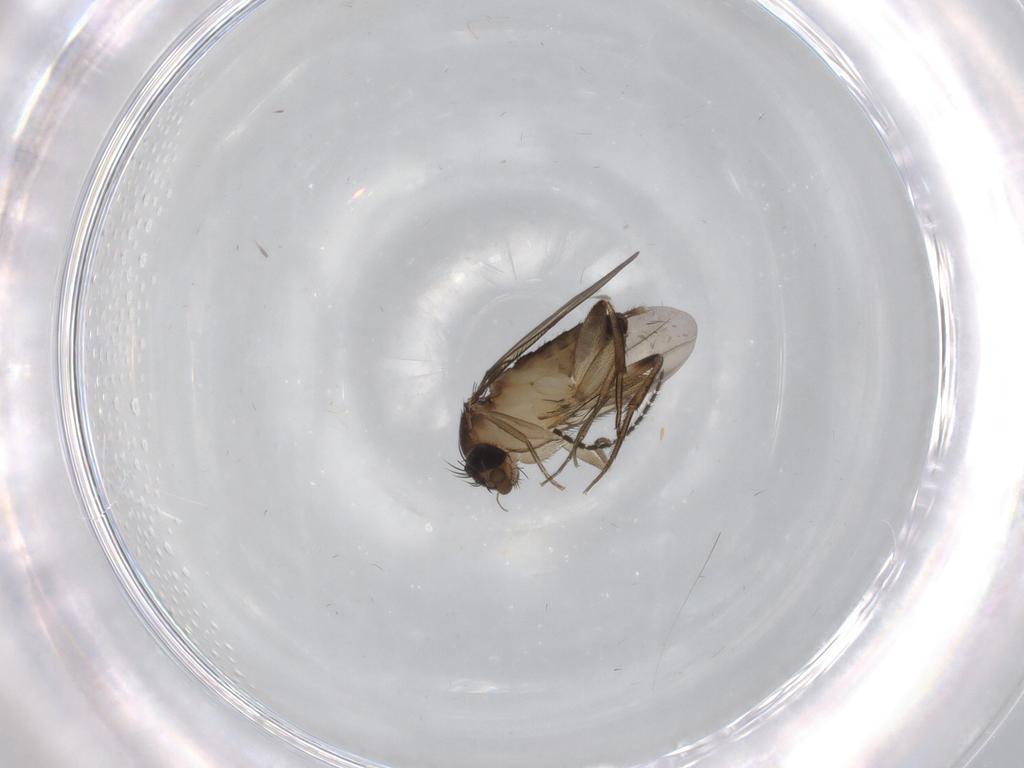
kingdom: Animalia
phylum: Arthropoda
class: Insecta
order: Diptera
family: Cecidomyiidae
